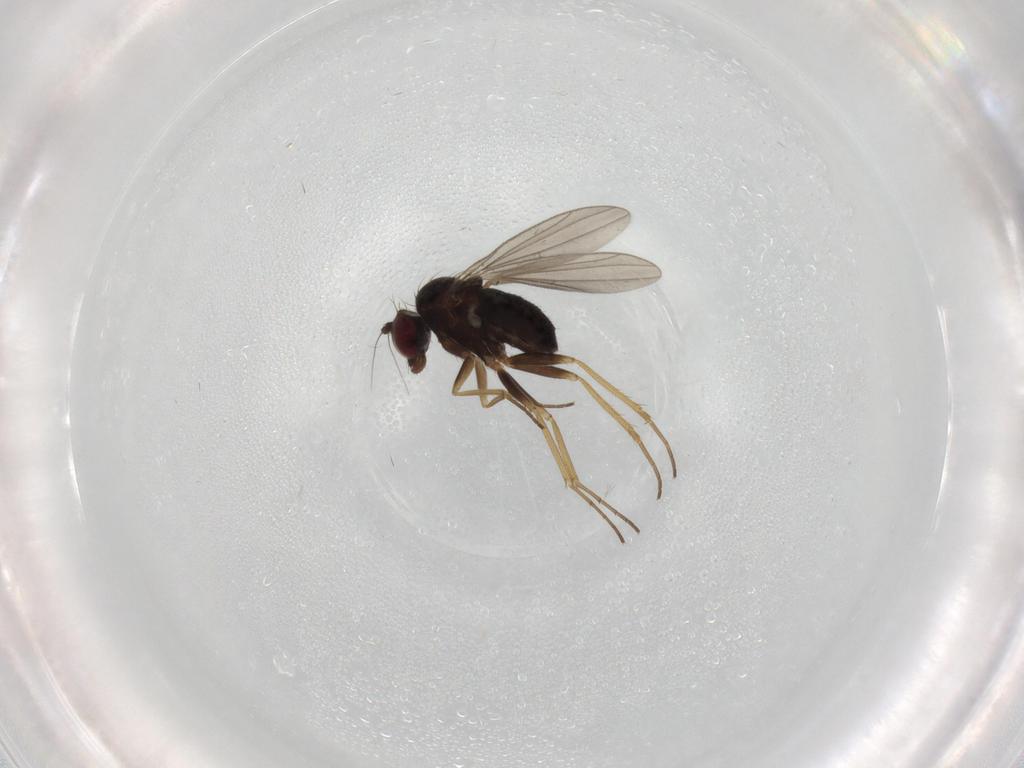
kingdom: Animalia
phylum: Arthropoda
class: Insecta
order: Diptera
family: Dolichopodidae
